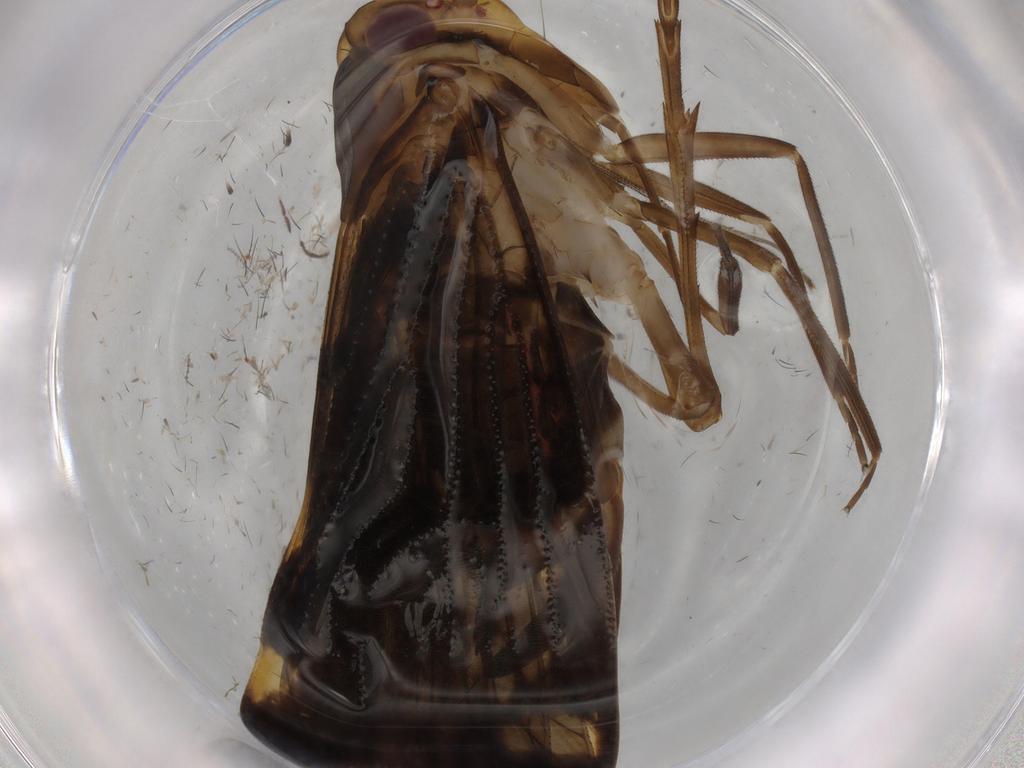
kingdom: Animalia
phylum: Arthropoda
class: Insecta
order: Hemiptera
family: Cixiidae
